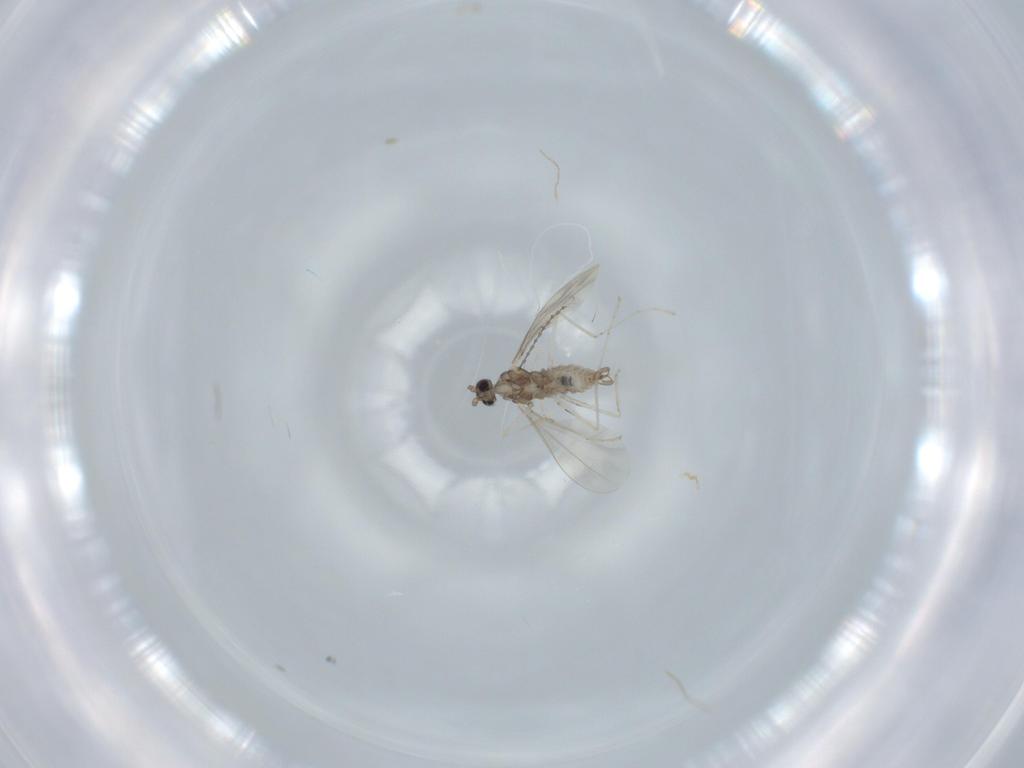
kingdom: Animalia
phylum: Arthropoda
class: Insecta
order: Diptera
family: Cecidomyiidae
